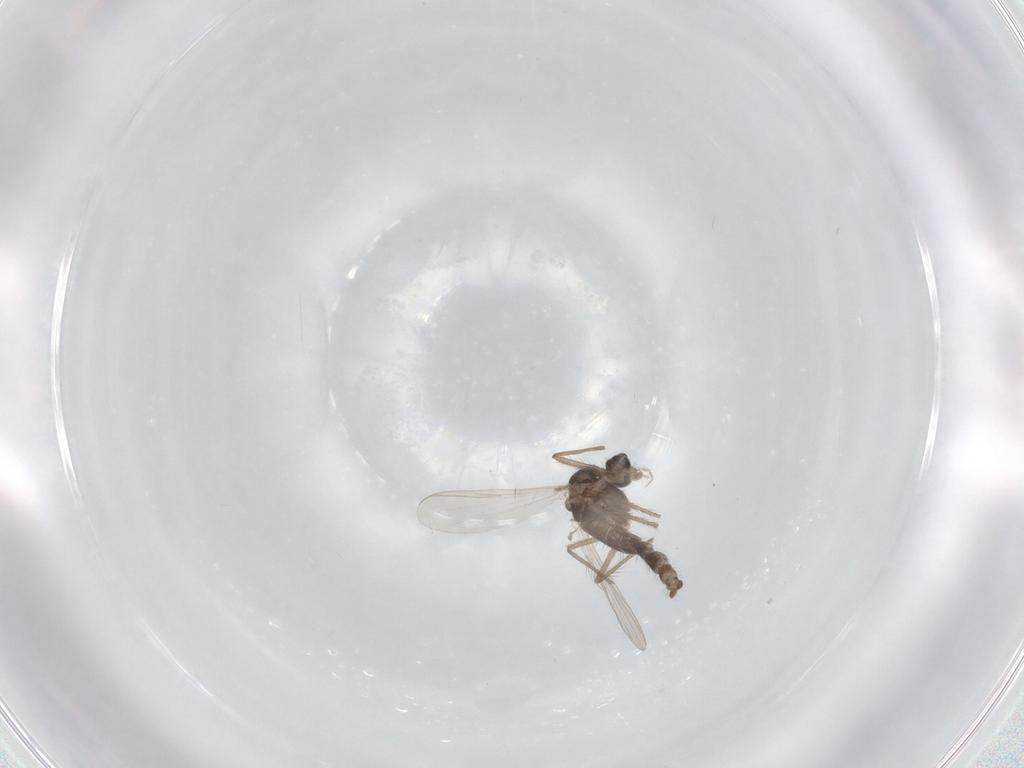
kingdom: Animalia
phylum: Arthropoda
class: Insecta
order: Diptera
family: Chironomidae
